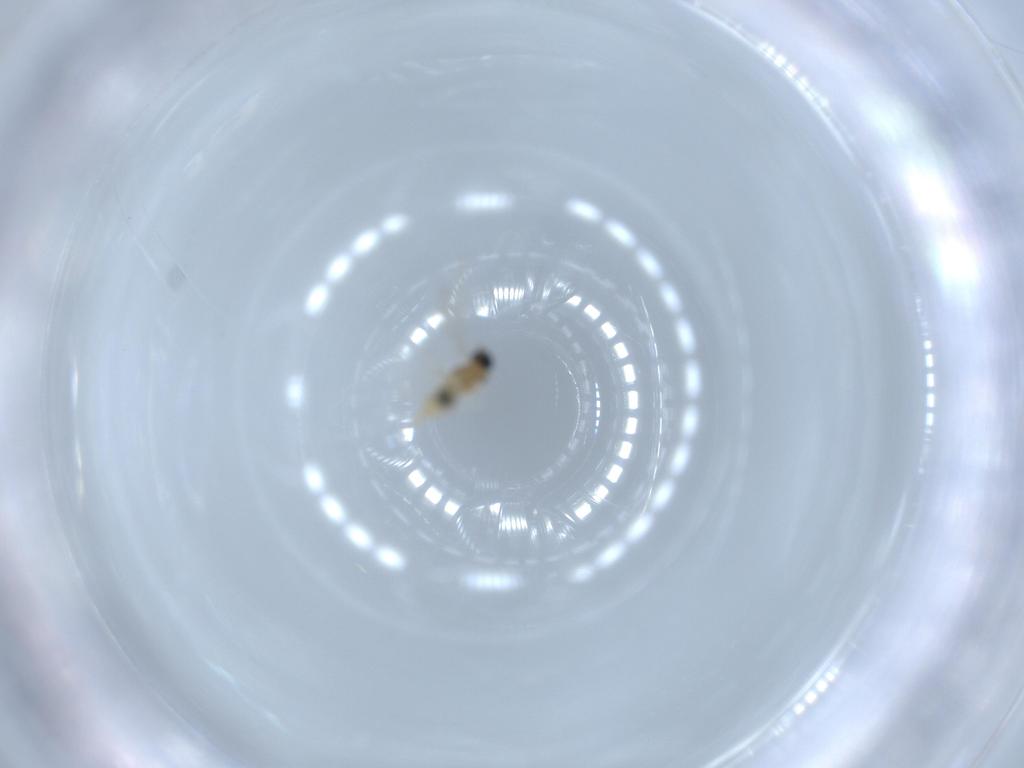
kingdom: Animalia
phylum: Arthropoda
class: Insecta
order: Diptera
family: Cecidomyiidae
